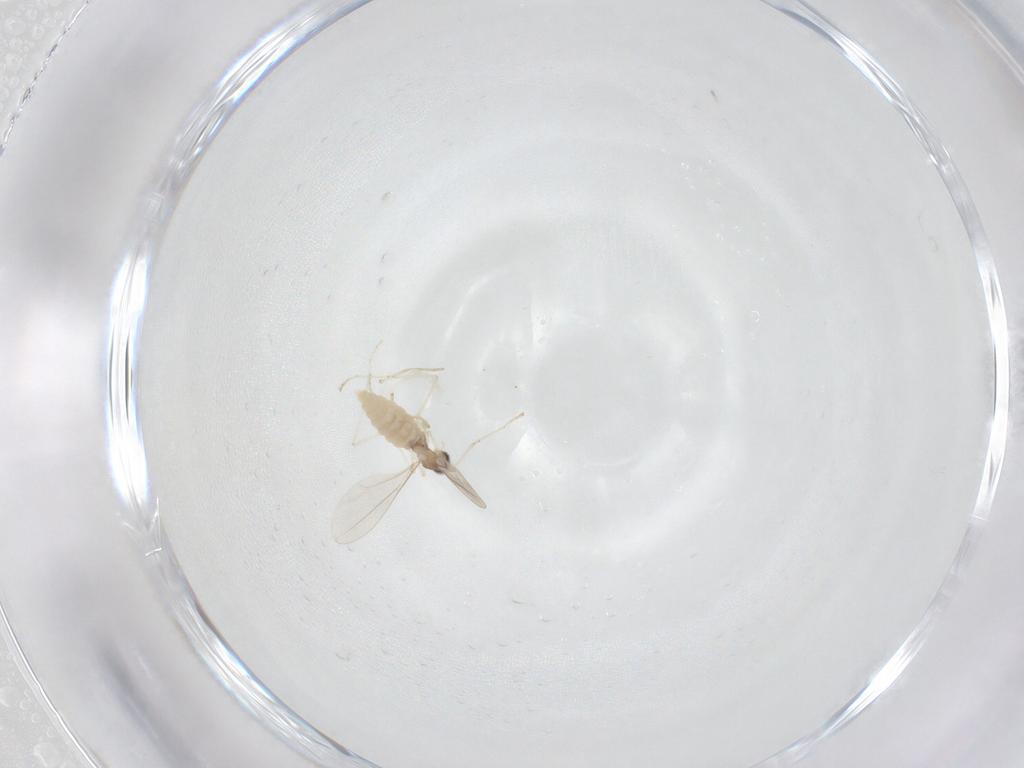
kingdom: Animalia
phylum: Arthropoda
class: Insecta
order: Diptera
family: Cecidomyiidae
